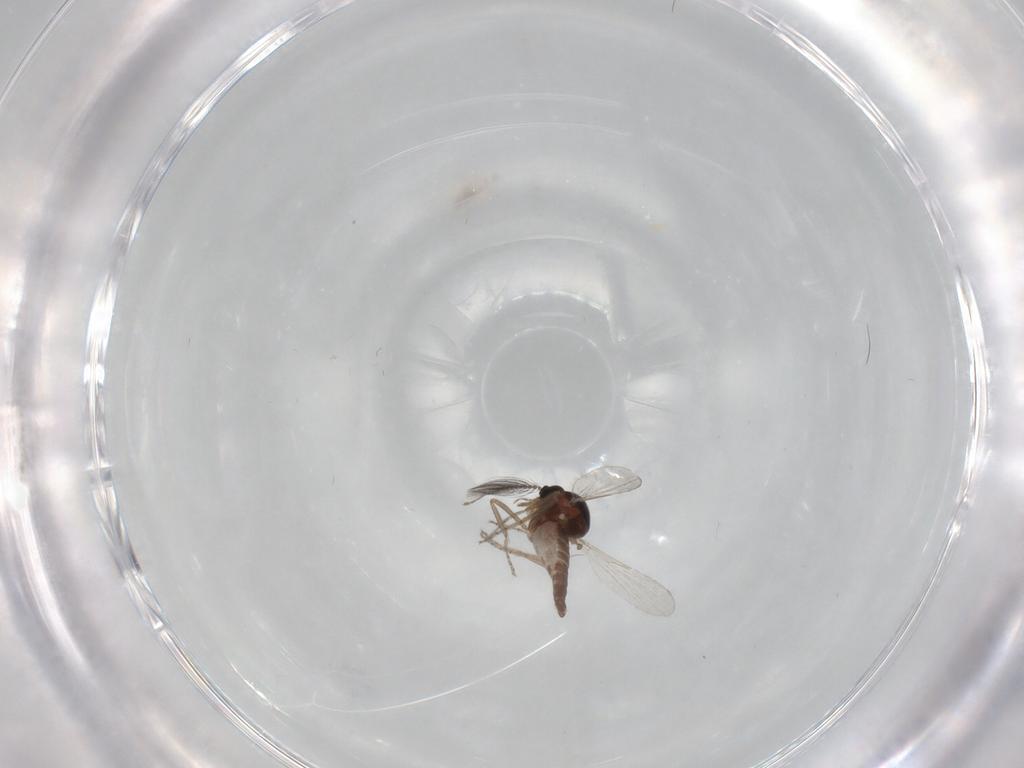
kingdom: Animalia
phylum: Arthropoda
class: Insecta
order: Diptera
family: Ceratopogonidae
